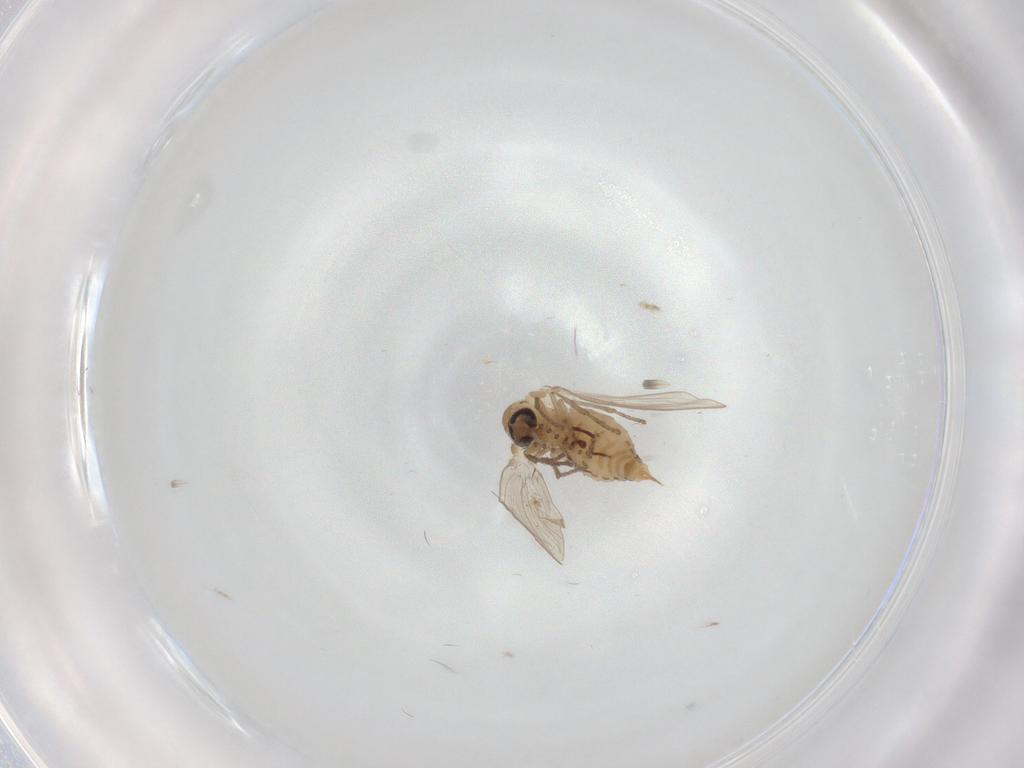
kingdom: Animalia
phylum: Arthropoda
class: Insecta
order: Diptera
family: Psychodidae
